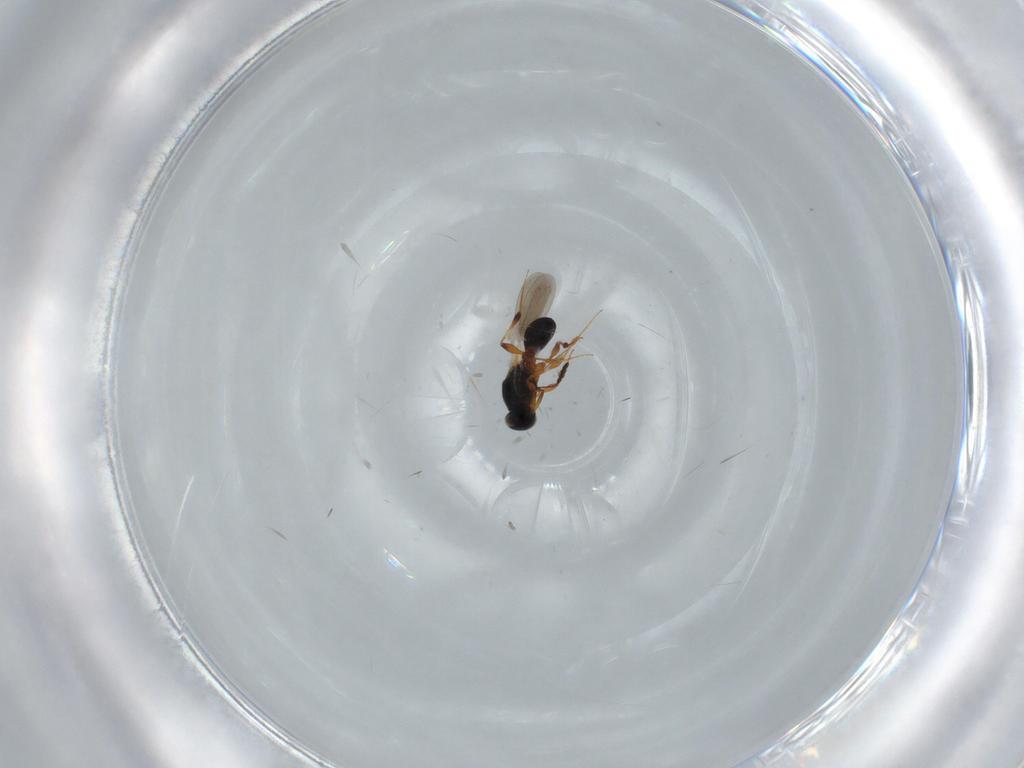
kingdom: Animalia
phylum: Arthropoda
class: Insecta
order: Hymenoptera
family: Platygastridae
